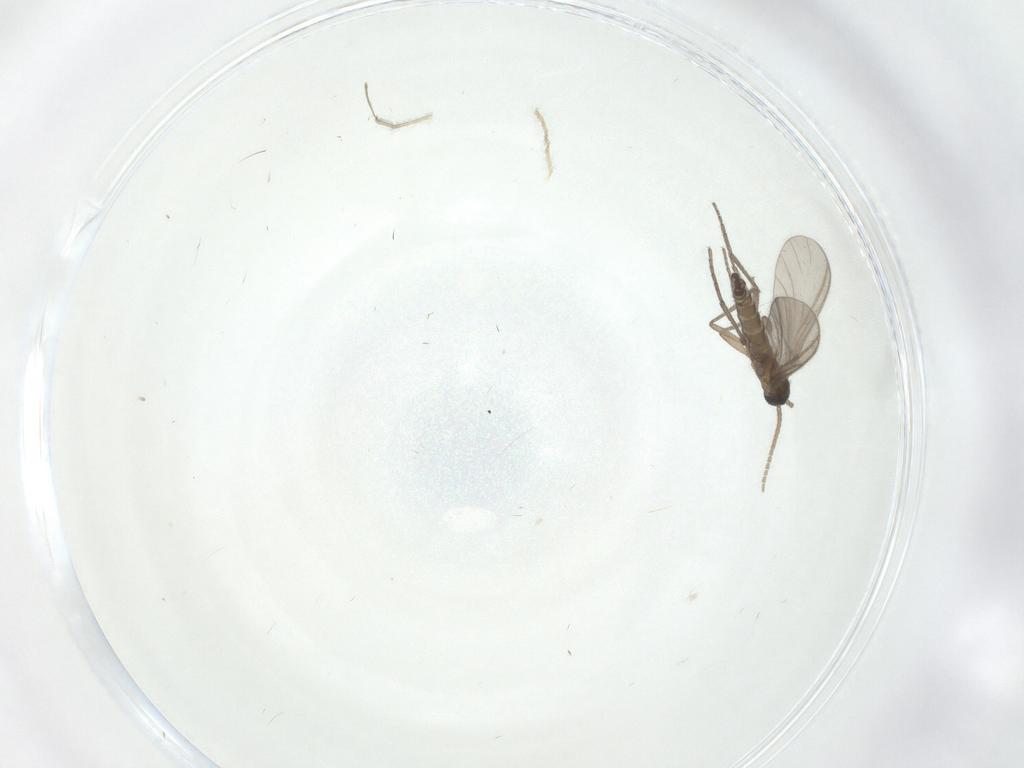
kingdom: Animalia
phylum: Arthropoda
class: Insecta
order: Diptera
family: Chironomidae
